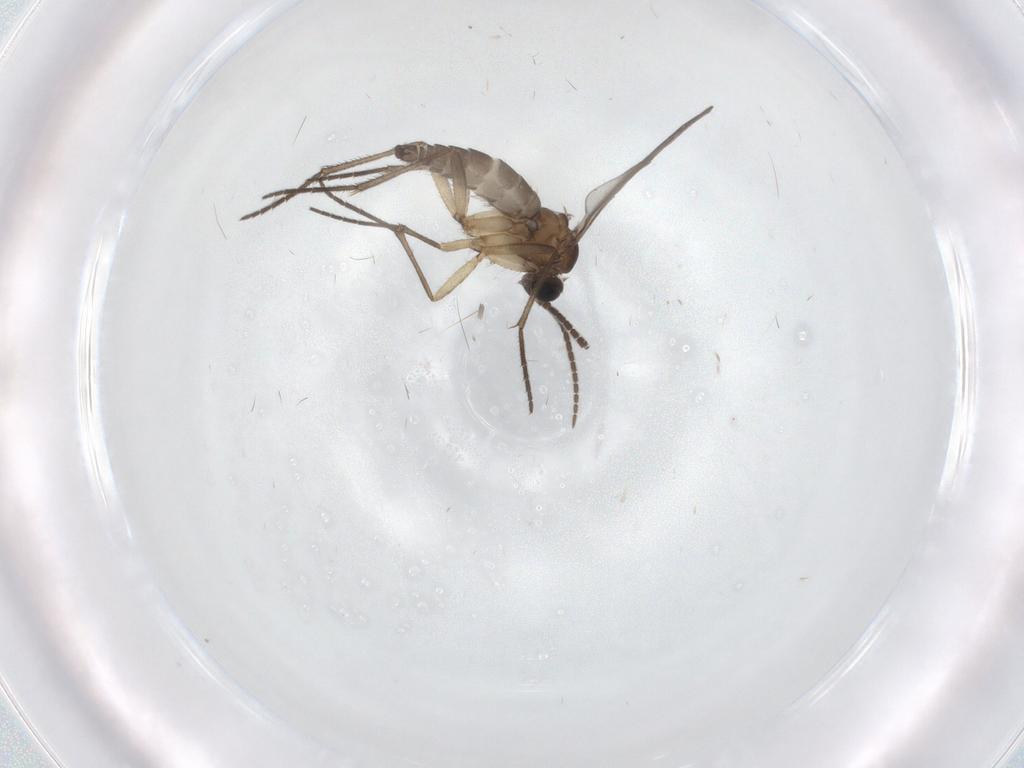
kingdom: Animalia
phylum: Arthropoda
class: Insecta
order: Diptera
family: Sciaridae
